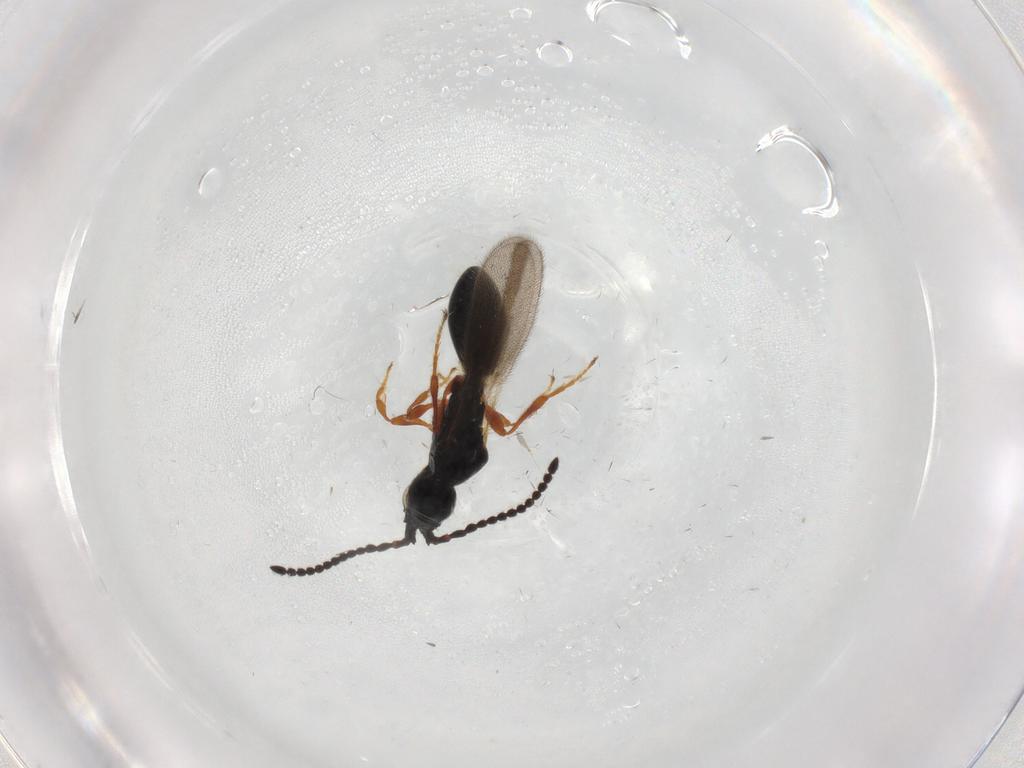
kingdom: Animalia
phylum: Arthropoda
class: Insecta
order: Hymenoptera
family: Diapriidae
